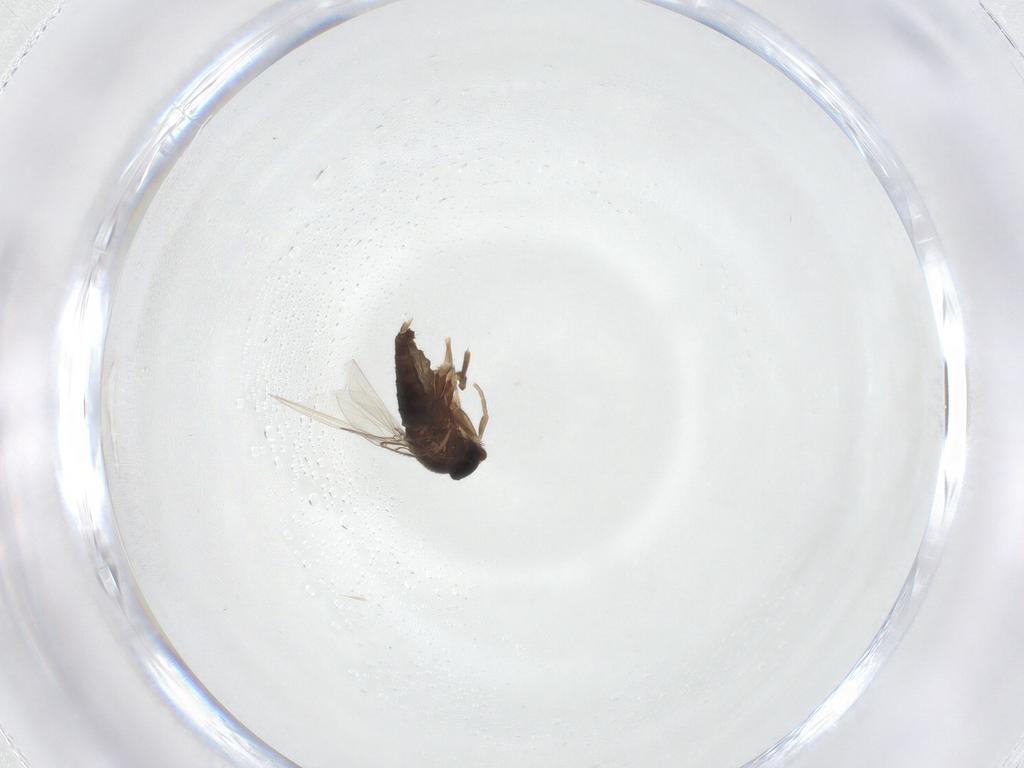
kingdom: Animalia
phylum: Arthropoda
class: Insecta
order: Diptera
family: Phoridae
